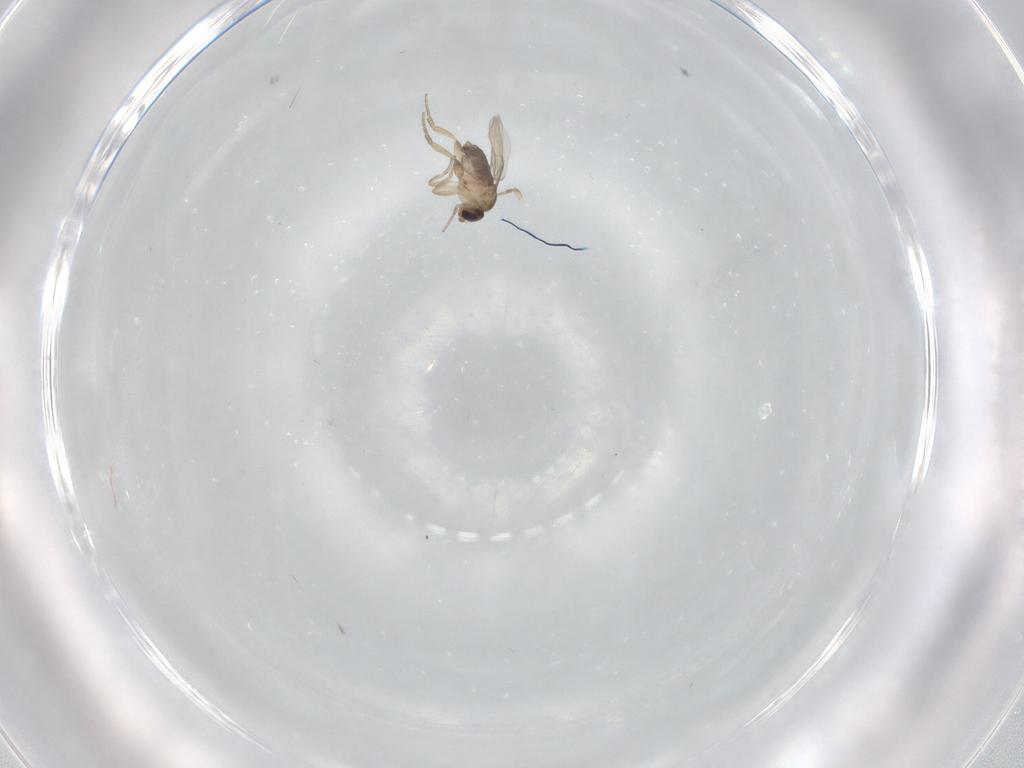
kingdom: Animalia
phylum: Arthropoda
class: Insecta
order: Diptera
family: Phoridae
